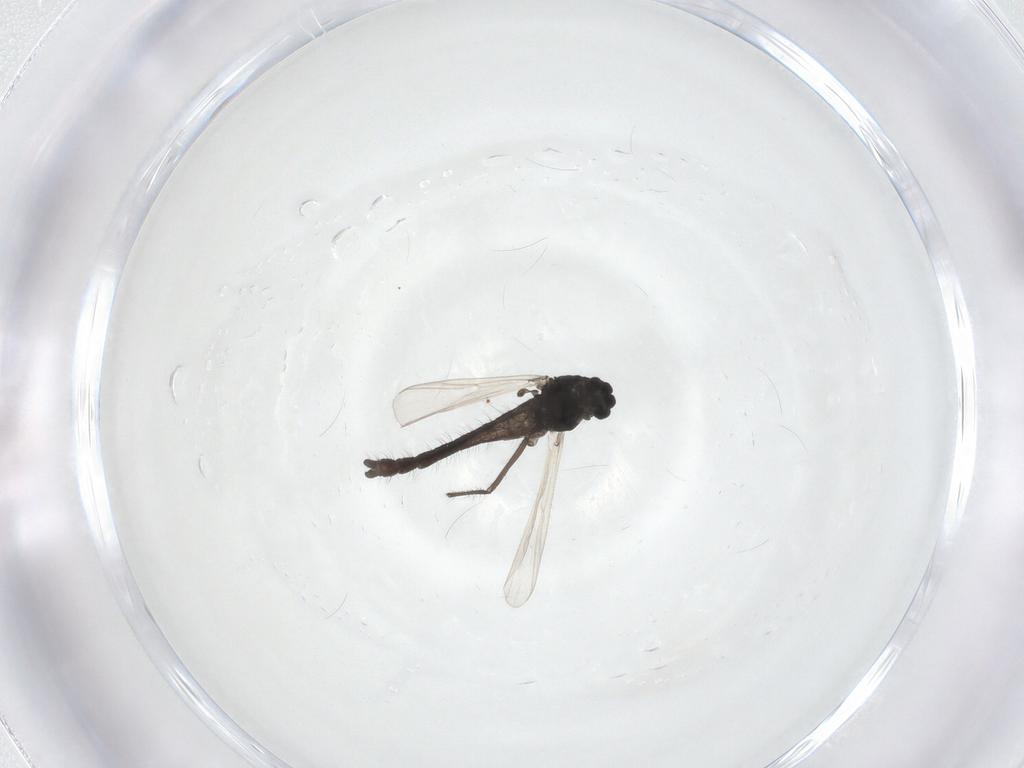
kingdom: Animalia
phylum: Arthropoda
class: Insecta
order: Diptera
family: Chironomidae
